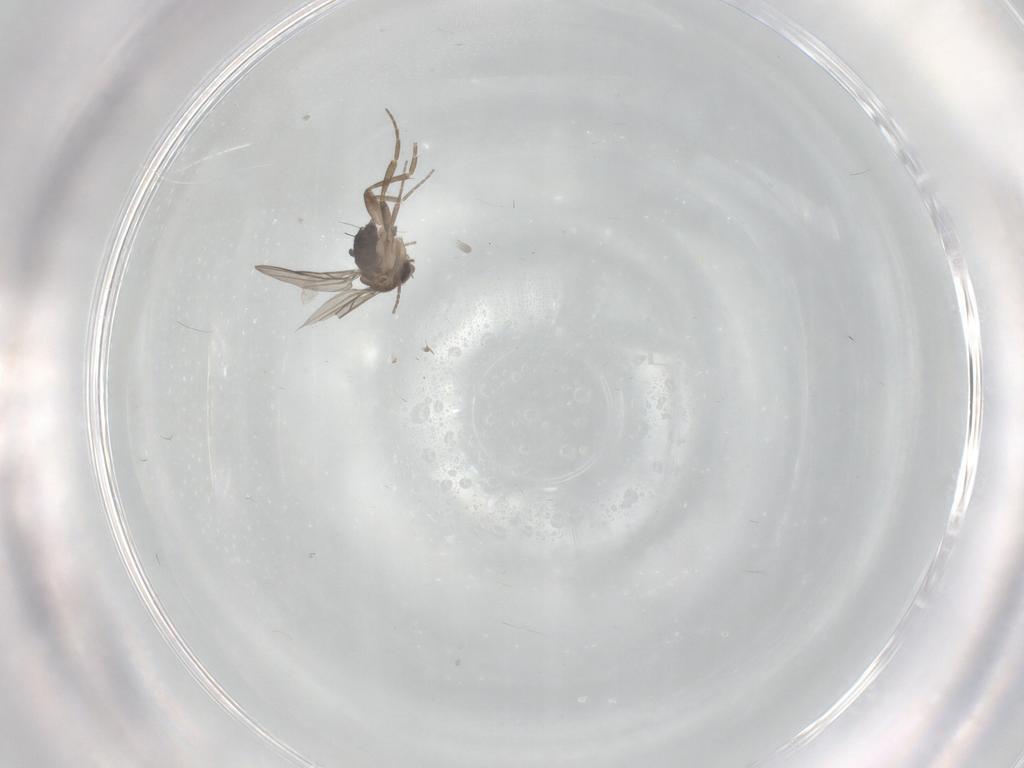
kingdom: Animalia
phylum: Arthropoda
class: Insecta
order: Diptera
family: Cecidomyiidae
